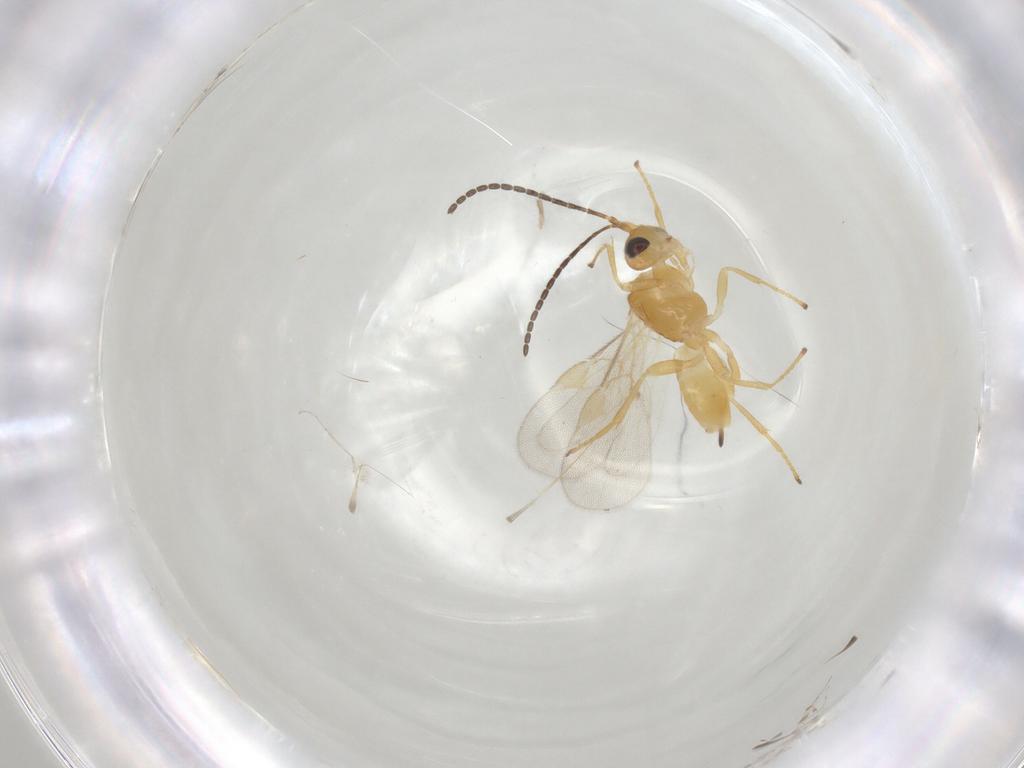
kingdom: Animalia
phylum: Arthropoda
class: Insecta
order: Hymenoptera
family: Braconidae
